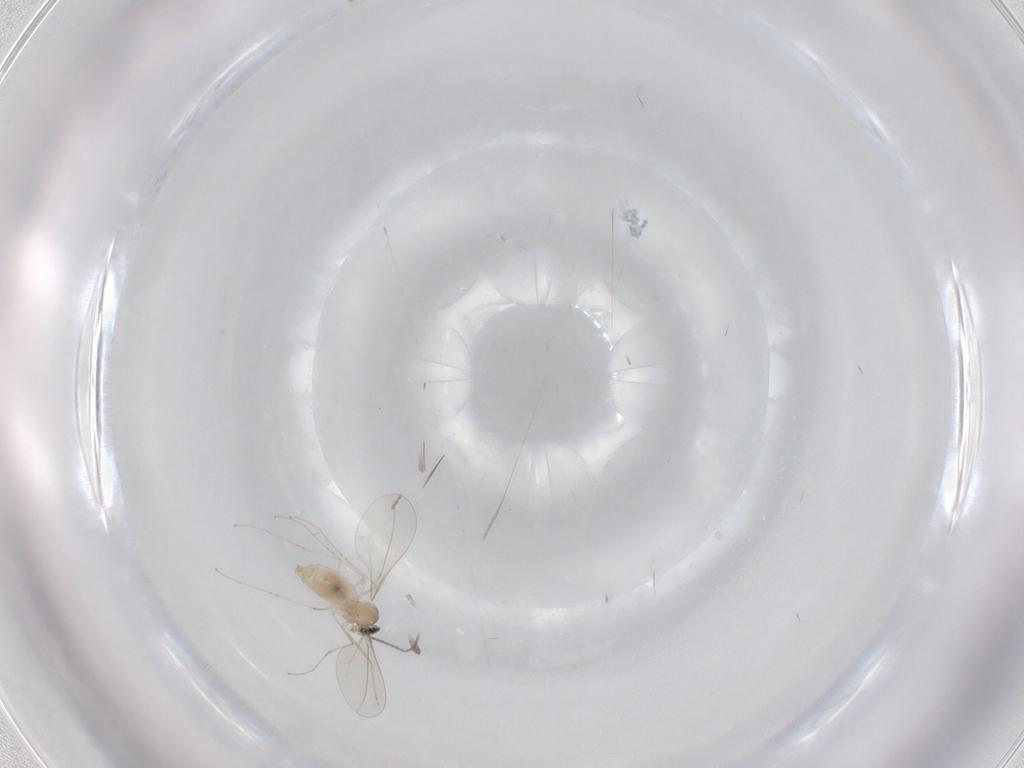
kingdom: Animalia
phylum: Arthropoda
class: Insecta
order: Diptera
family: Cecidomyiidae
